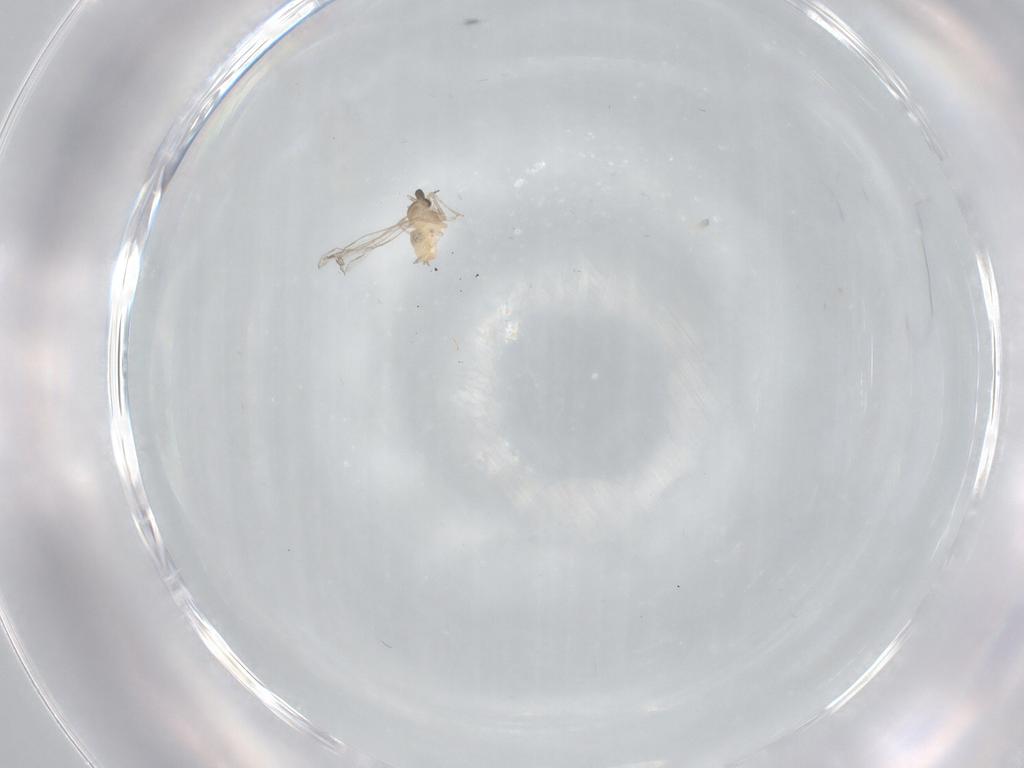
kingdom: Animalia
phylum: Arthropoda
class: Insecta
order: Diptera
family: Cecidomyiidae
